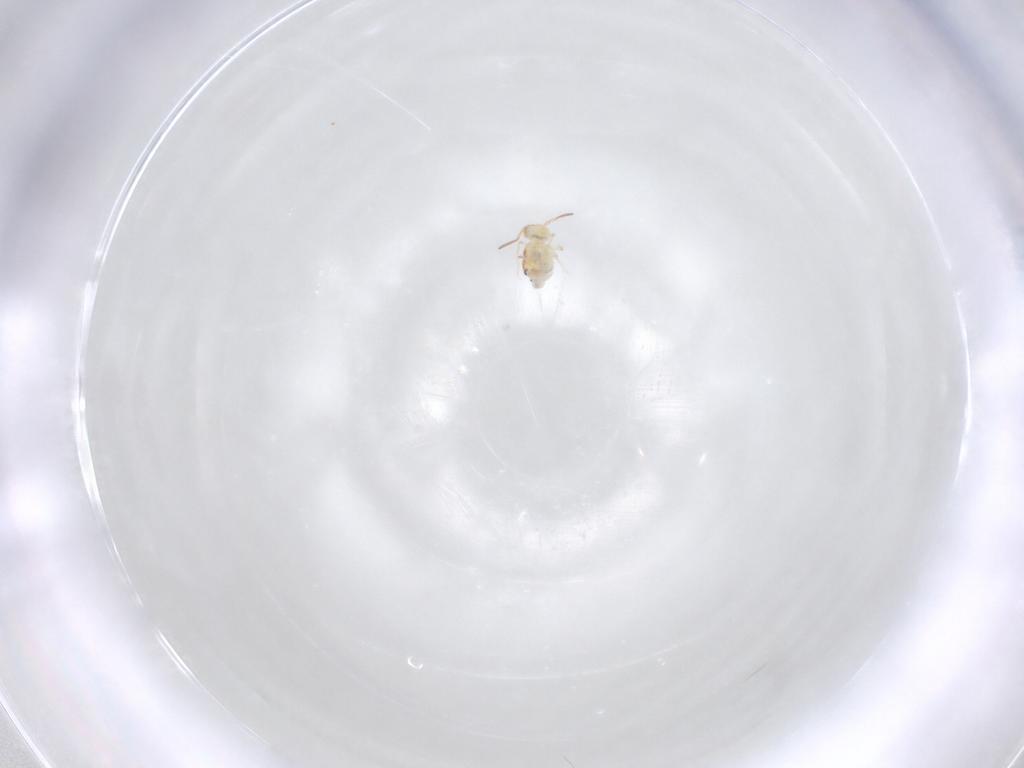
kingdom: Animalia
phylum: Arthropoda
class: Collembola
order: Symphypleona
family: Bourletiellidae
